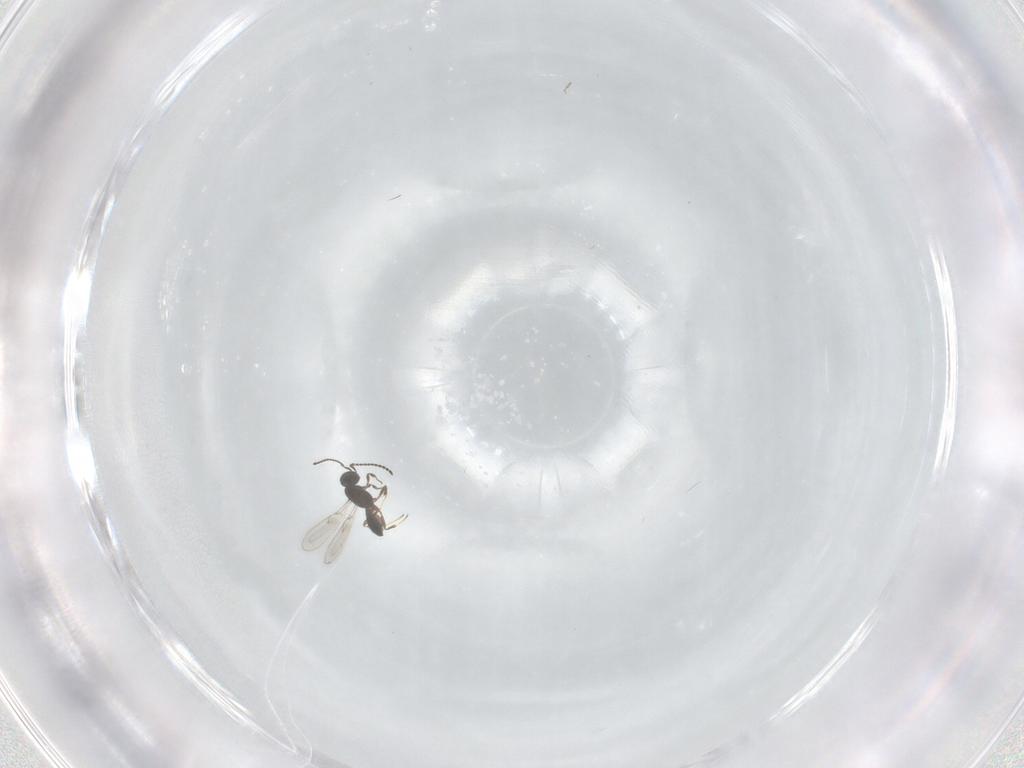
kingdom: Animalia
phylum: Arthropoda
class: Insecta
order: Hymenoptera
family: Scelionidae
